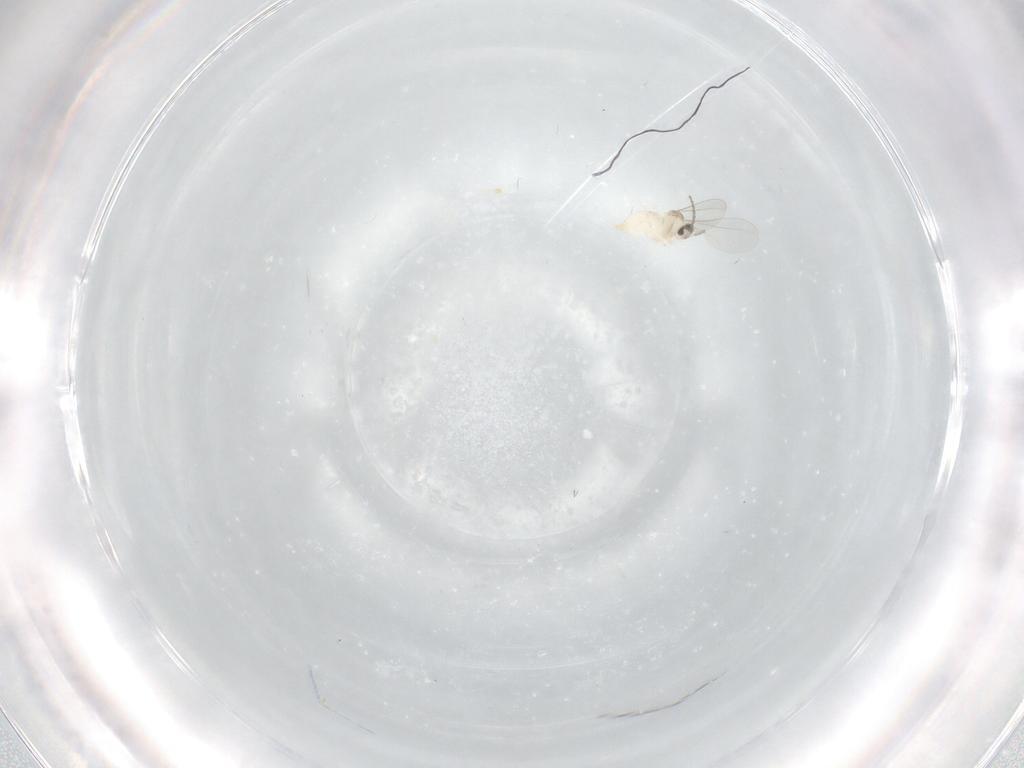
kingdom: Animalia
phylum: Arthropoda
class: Insecta
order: Diptera
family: Cecidomyiidae
